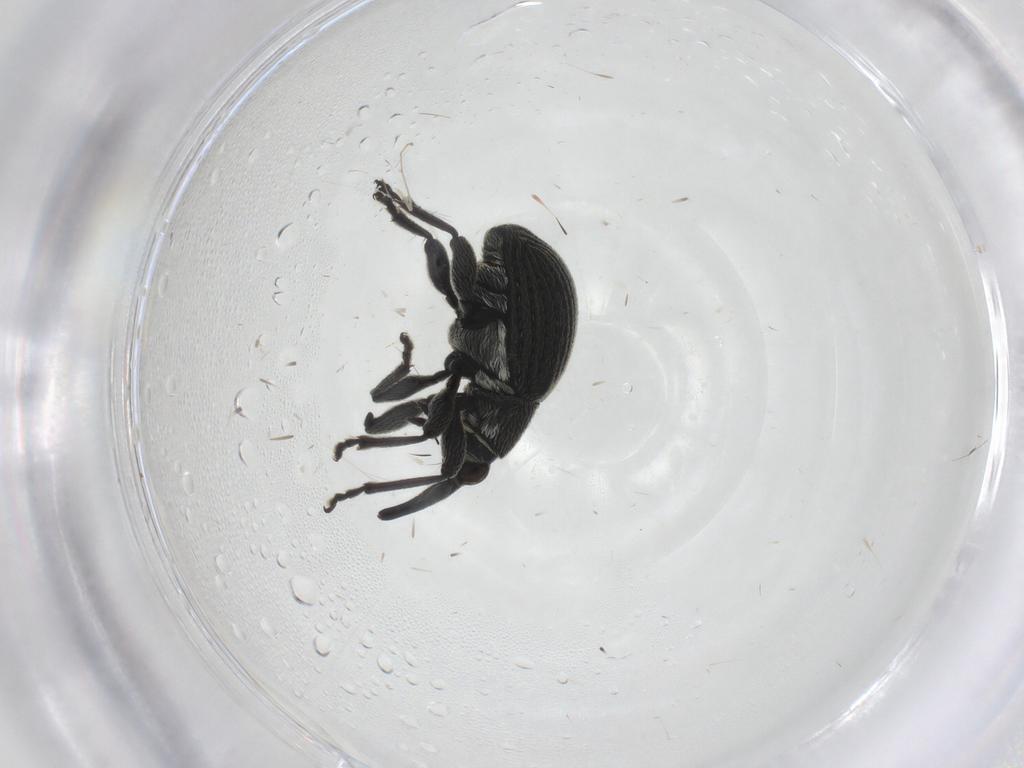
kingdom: Animalia
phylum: Arthropoda
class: Insecta
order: Coleoptera
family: Brentidae
